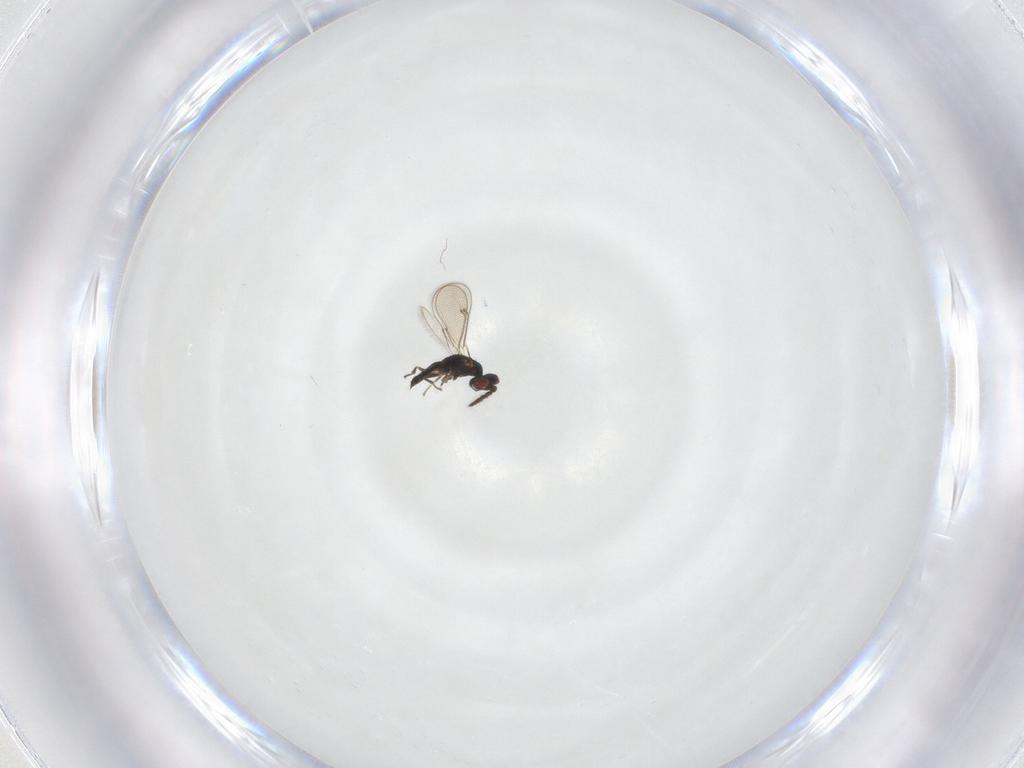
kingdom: Animalia
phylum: Arthropoda
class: Insecta
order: Hymenoptera
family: Eulophidae
